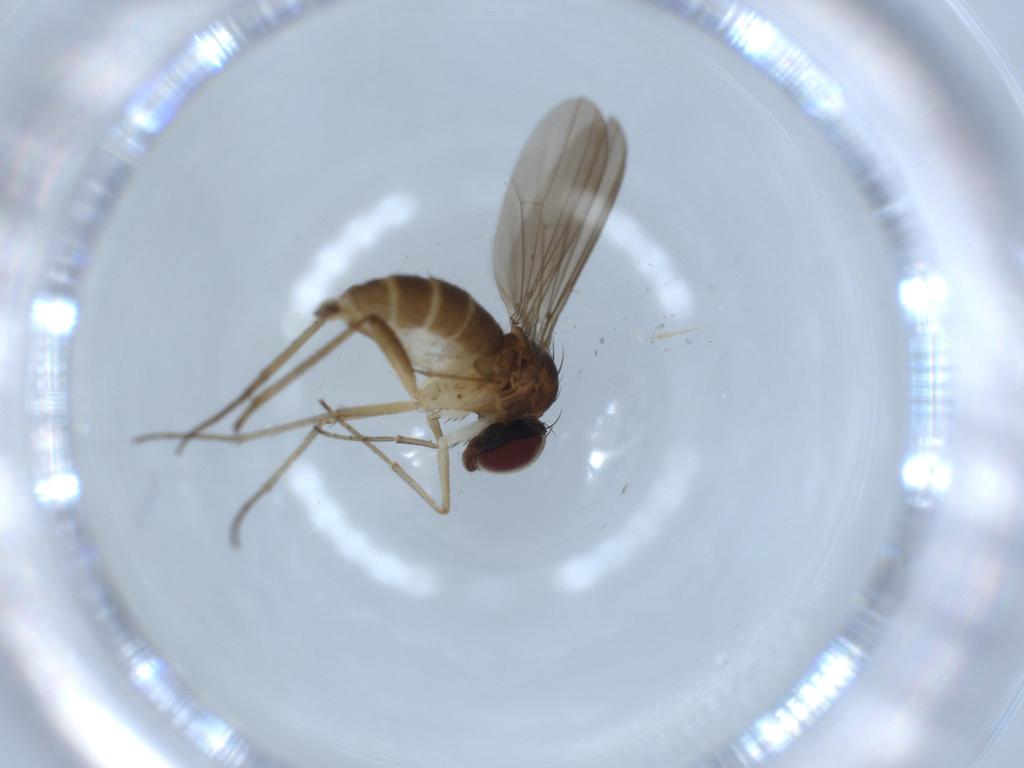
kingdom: Animalia
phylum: Arthropoda
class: Insecta
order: Diptera
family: Dolichopodidae
